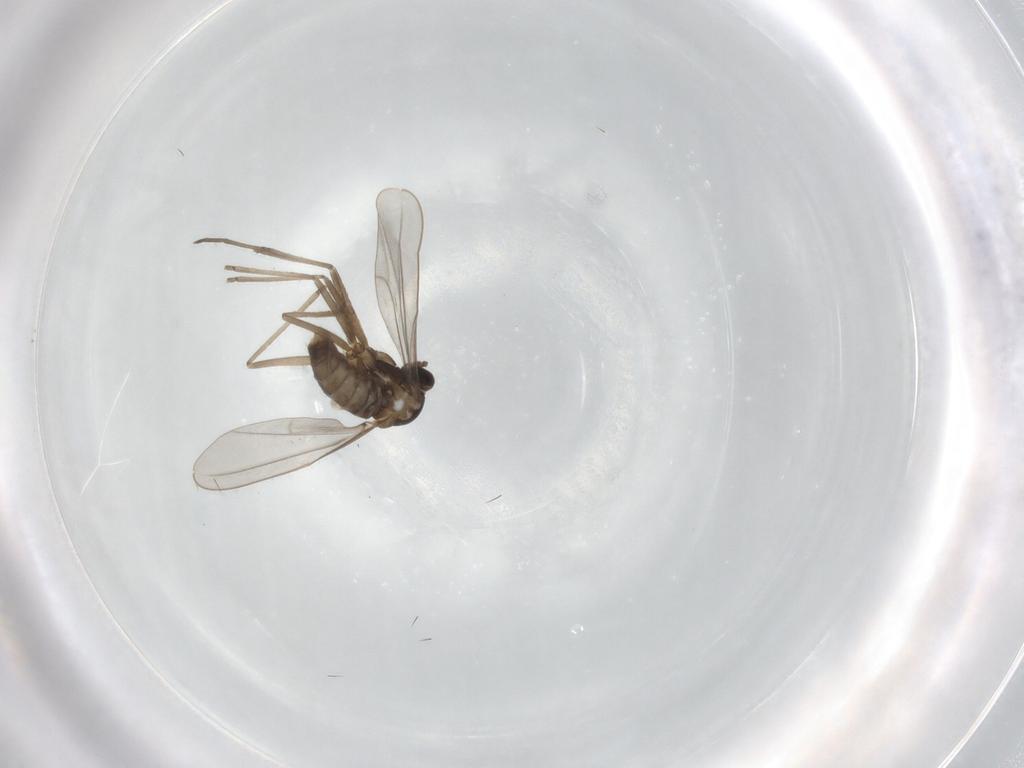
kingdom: Animalia
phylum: Arthropoda
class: Insecta
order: Diptera
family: Cecidomyiidae
